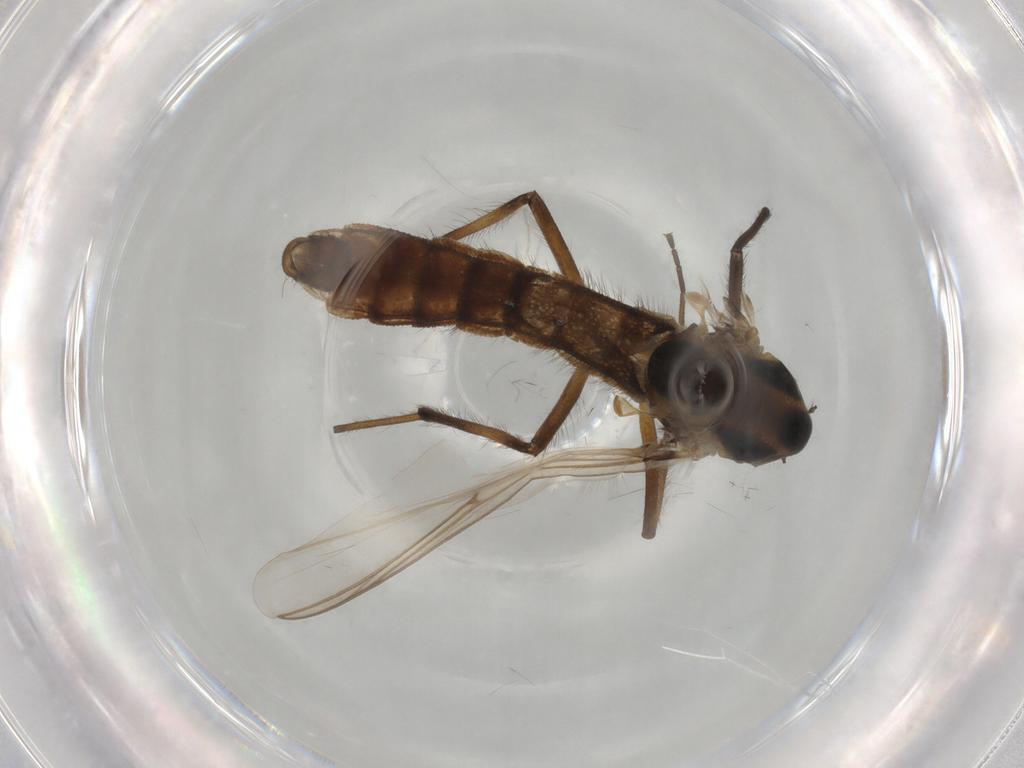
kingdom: Animalia
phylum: Arthropoda
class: Insecta
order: Diptera
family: Chironomidae
